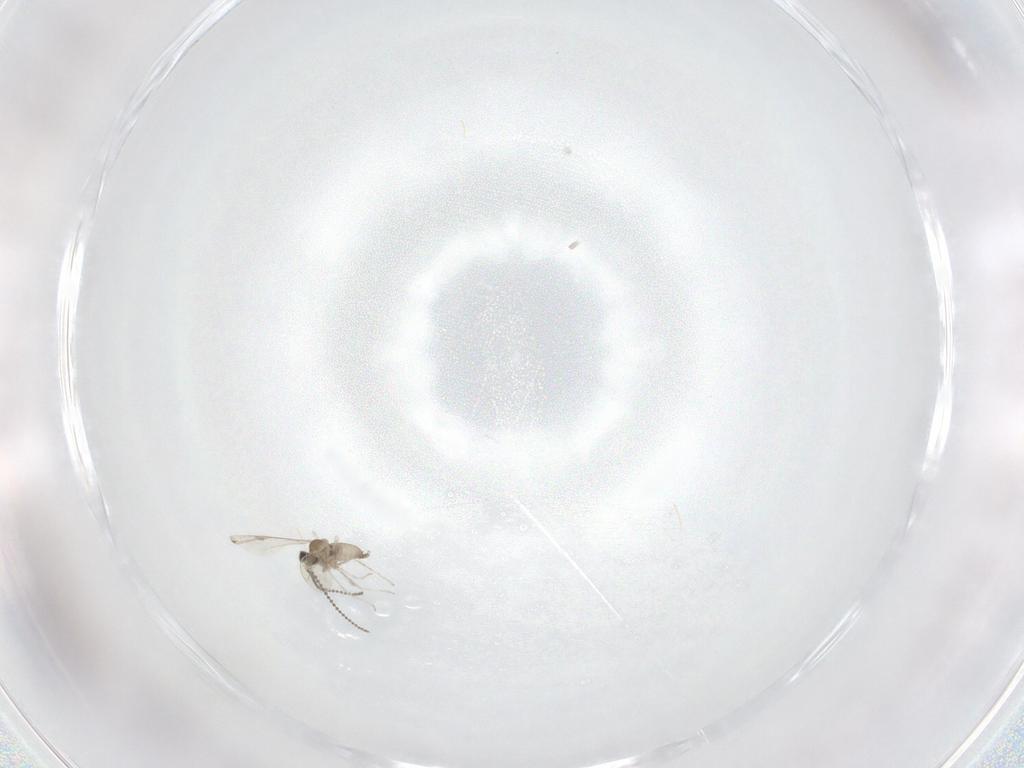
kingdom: Animalia
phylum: Arthropoda
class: Insecta
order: Diptera
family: Cecidomyiidae
